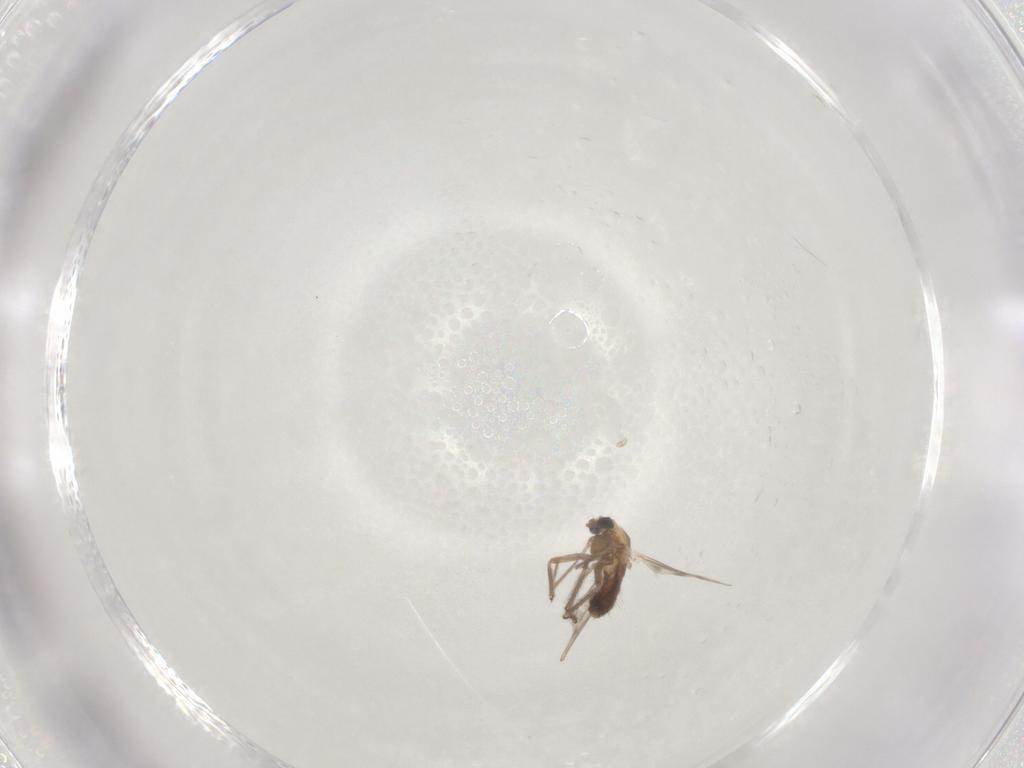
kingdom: Animalia
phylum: Arthropoda
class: Insecta
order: Diptera
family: Chironomidae
